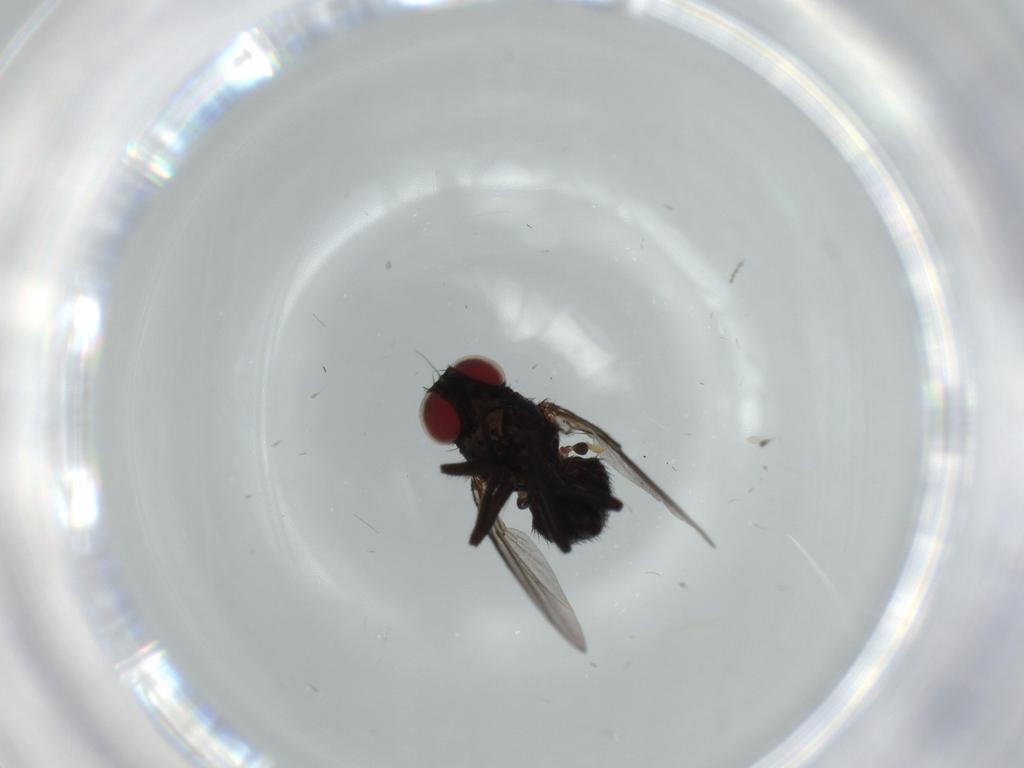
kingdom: Animalia
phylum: Arthropoda
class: Insecta
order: Diptera
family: Agromyzidae
